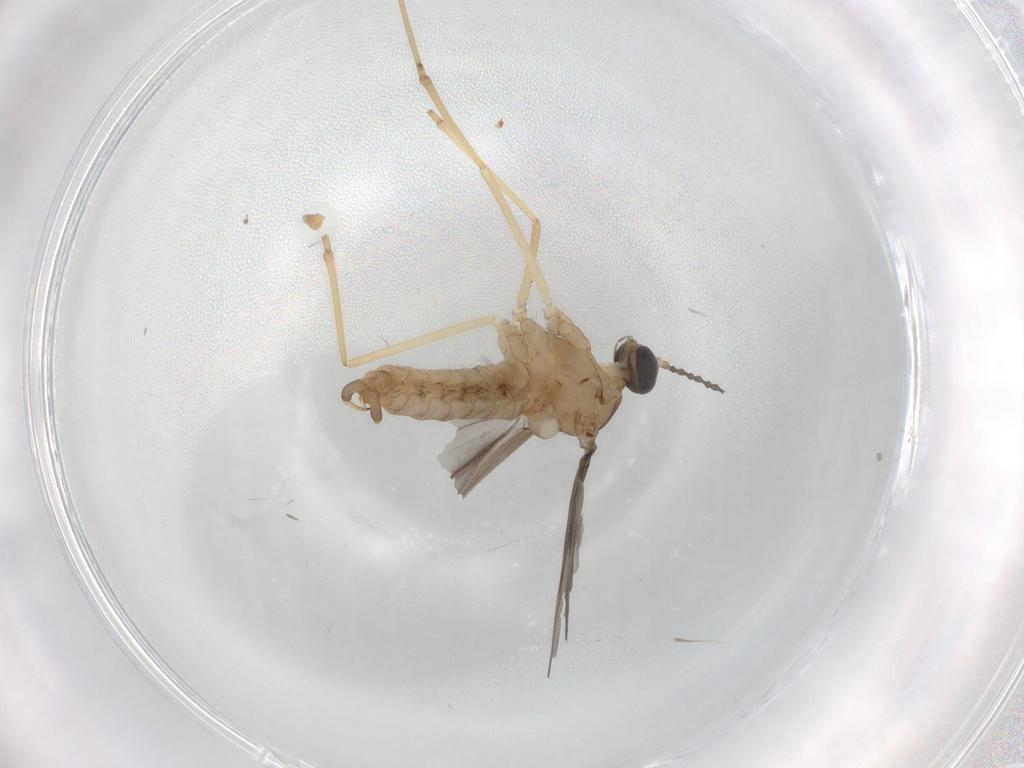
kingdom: Animalia
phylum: Arthropoda
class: Insecta
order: Diptera
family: Cecidomyiidae
